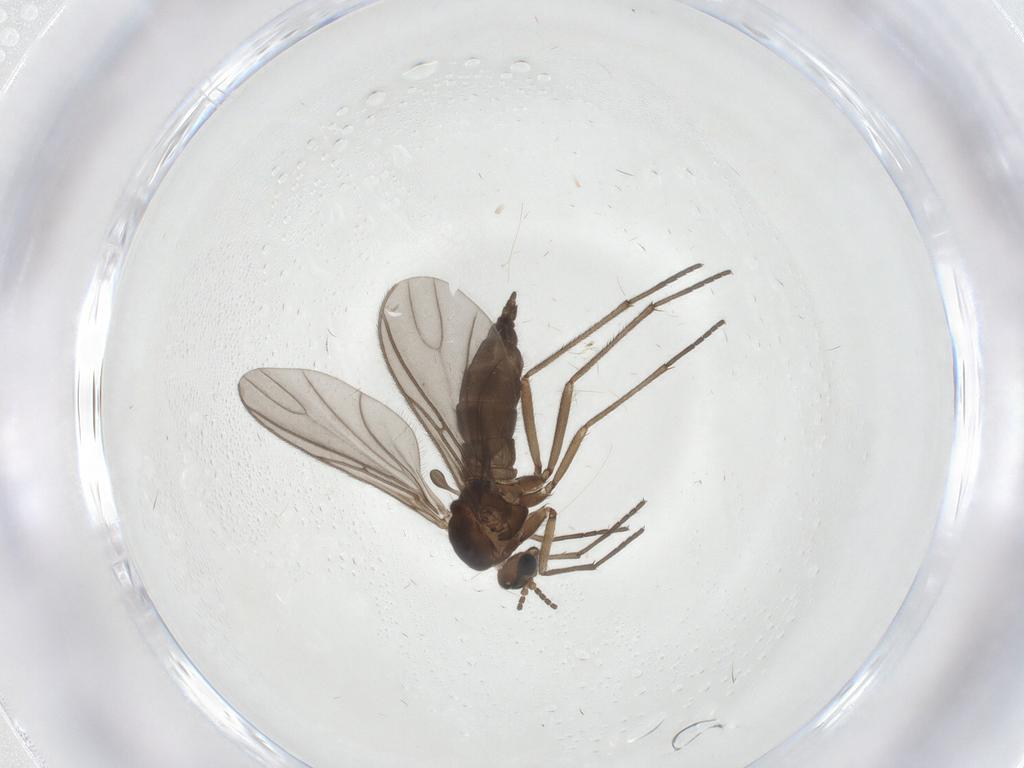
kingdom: Animalia
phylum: Arthropoda
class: Insecta
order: Diptera
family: Sciaridae
